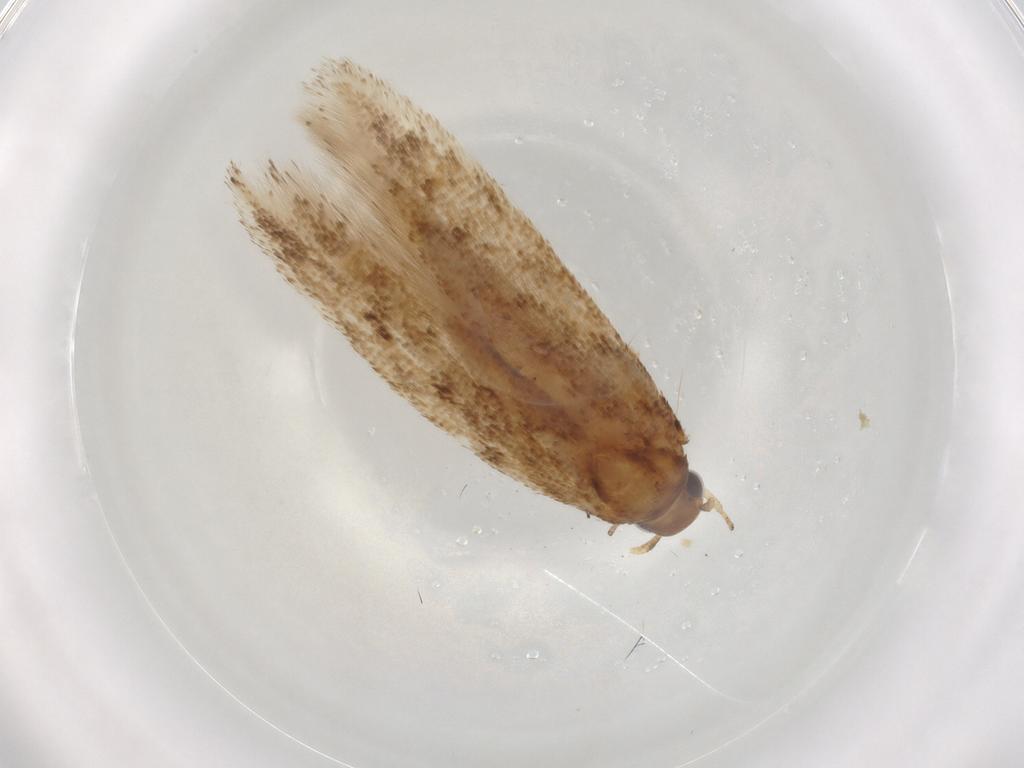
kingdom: Animalia
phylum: Arthropoda
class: Insecta
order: Lepidoptera
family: Gelechiidae
